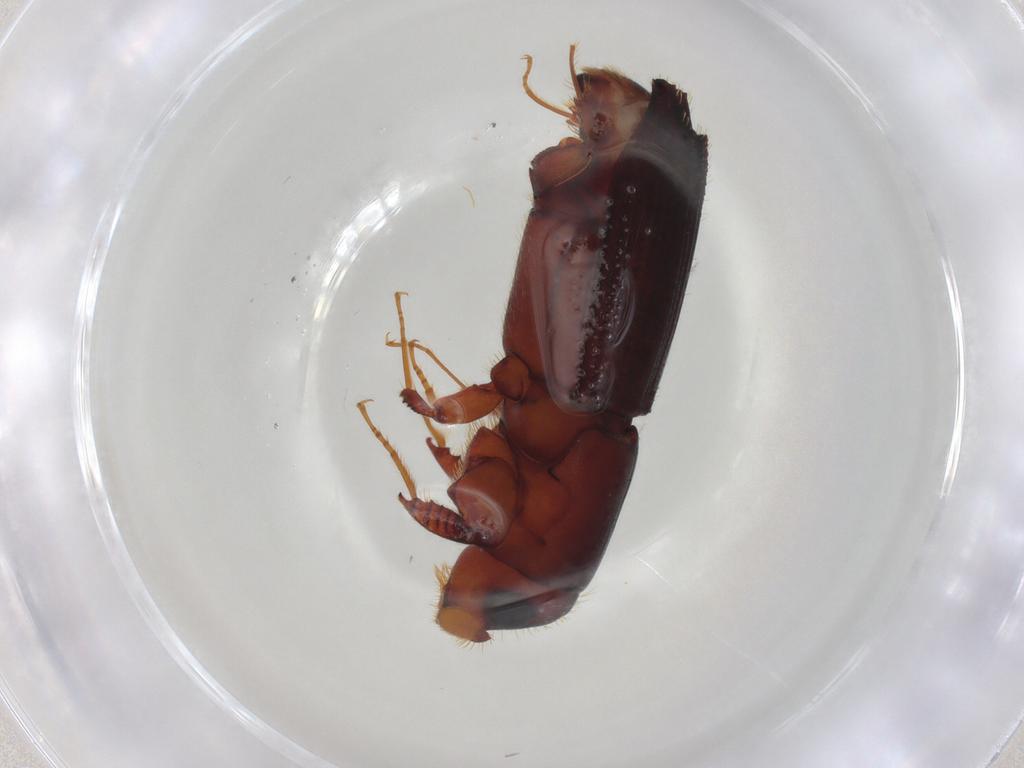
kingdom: Animalia
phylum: Arthropoda
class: Insecta
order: Coleoptera
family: Curculionidae
